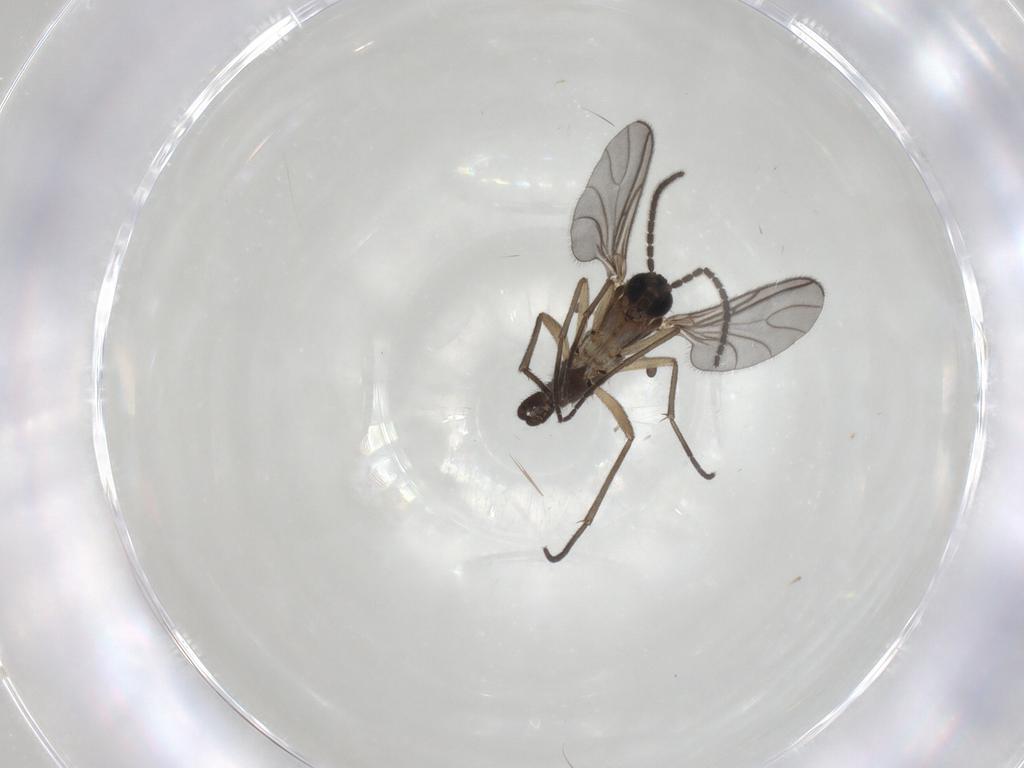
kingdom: Animalia
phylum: Arthropoda
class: Insecta
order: Diptera
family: Sciaridae
